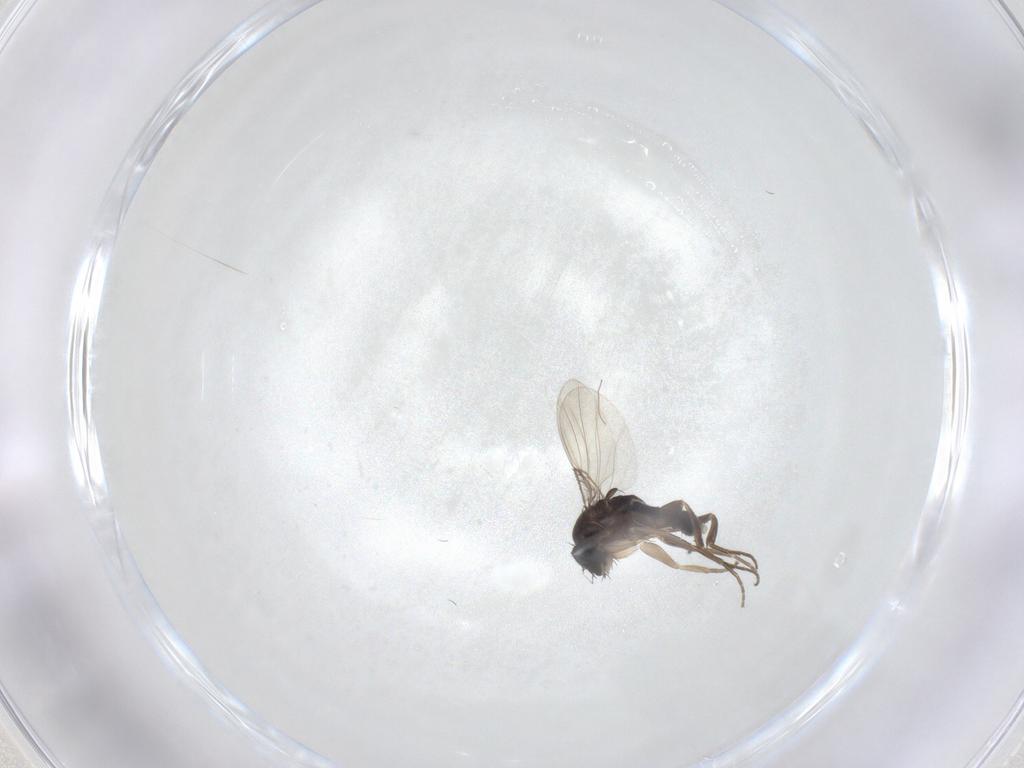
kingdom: Animalia
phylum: Arthropoda
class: Insecta
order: Diptera
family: Phoridae
